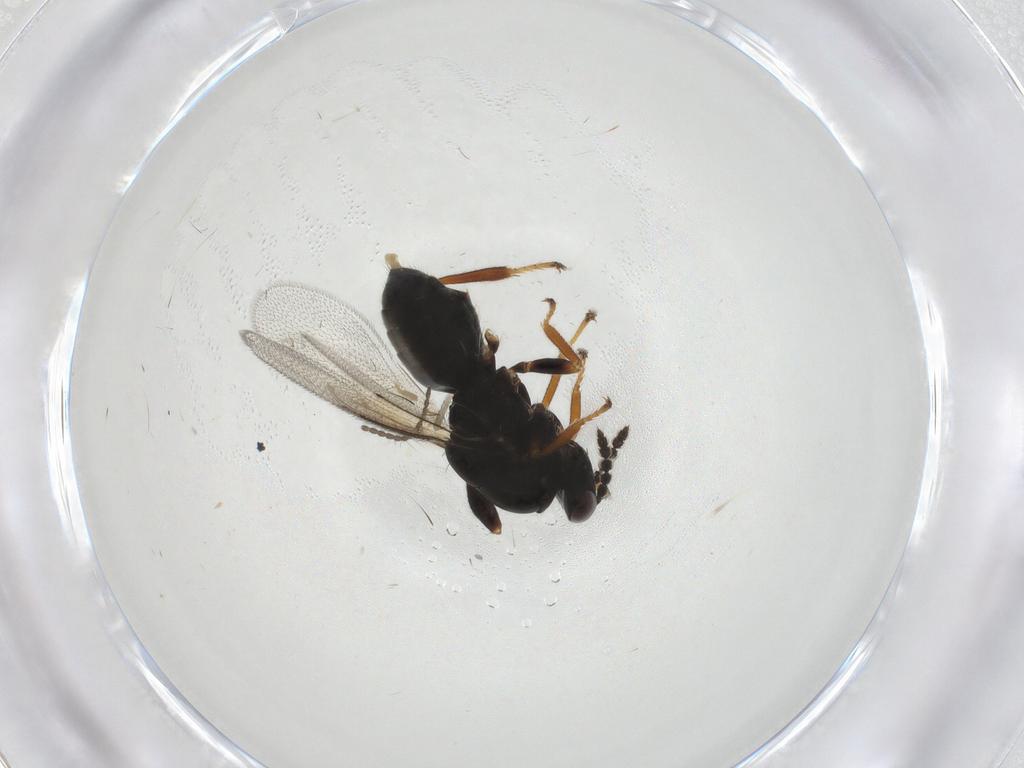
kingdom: Animalia
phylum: Arthropoda
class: Insecta
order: Hymenoptera
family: Eulophidae
